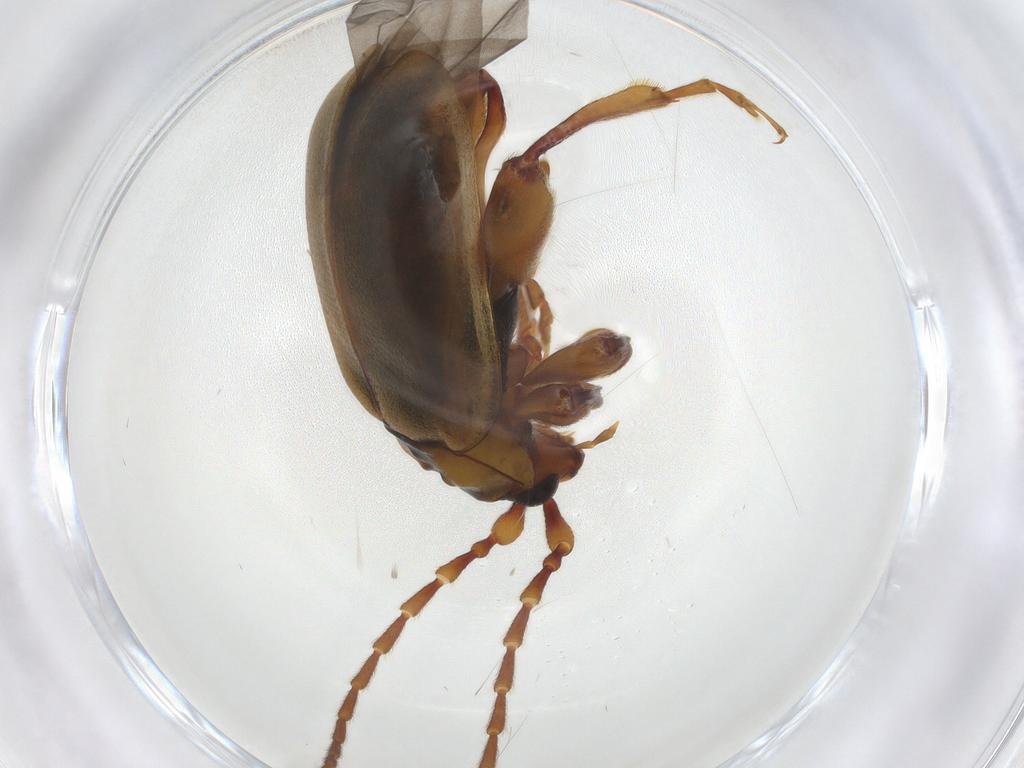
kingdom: Animalia
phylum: Arthropoda
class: Insecta
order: Coleoptera
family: Chrysomelidae
